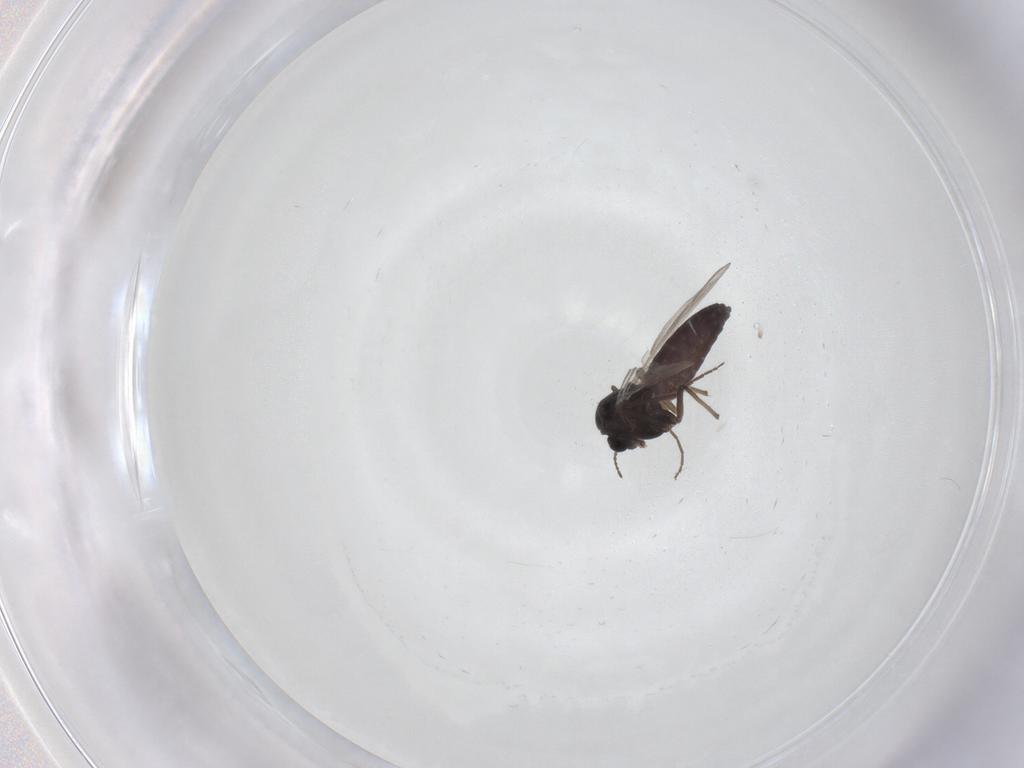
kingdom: Animalia
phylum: Arthropoda
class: Insecta
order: Diptera
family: Chironomidae
